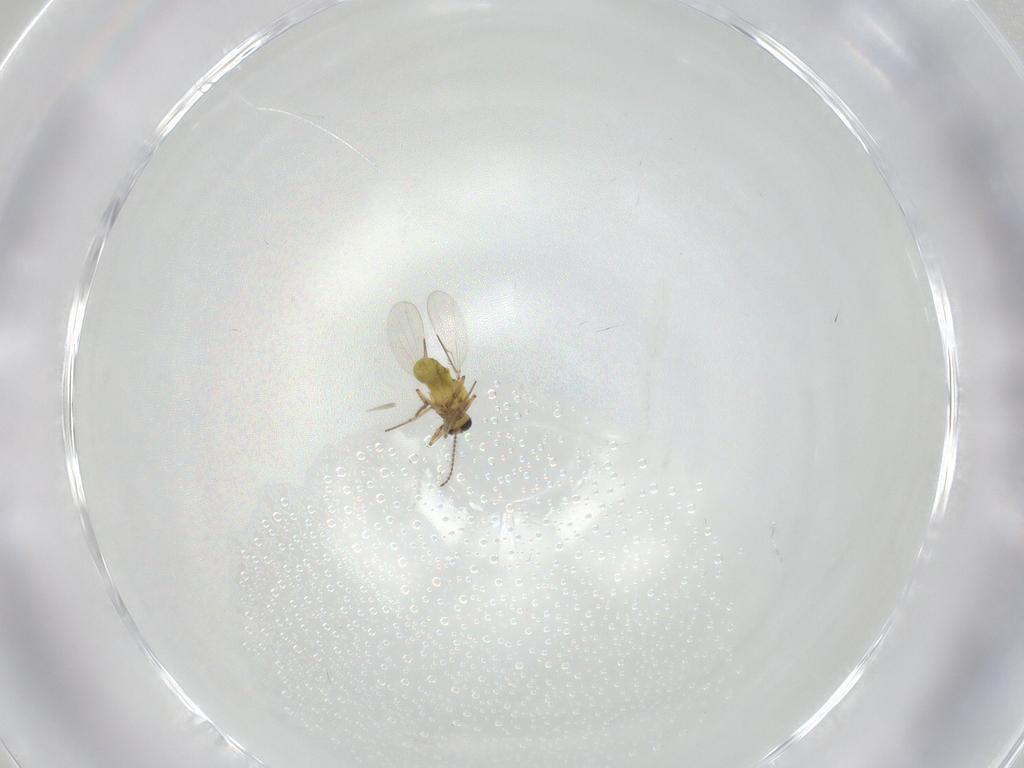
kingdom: Animalia
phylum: Arthropoda
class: Insecta
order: Diptera
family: Ceratopogonidae
